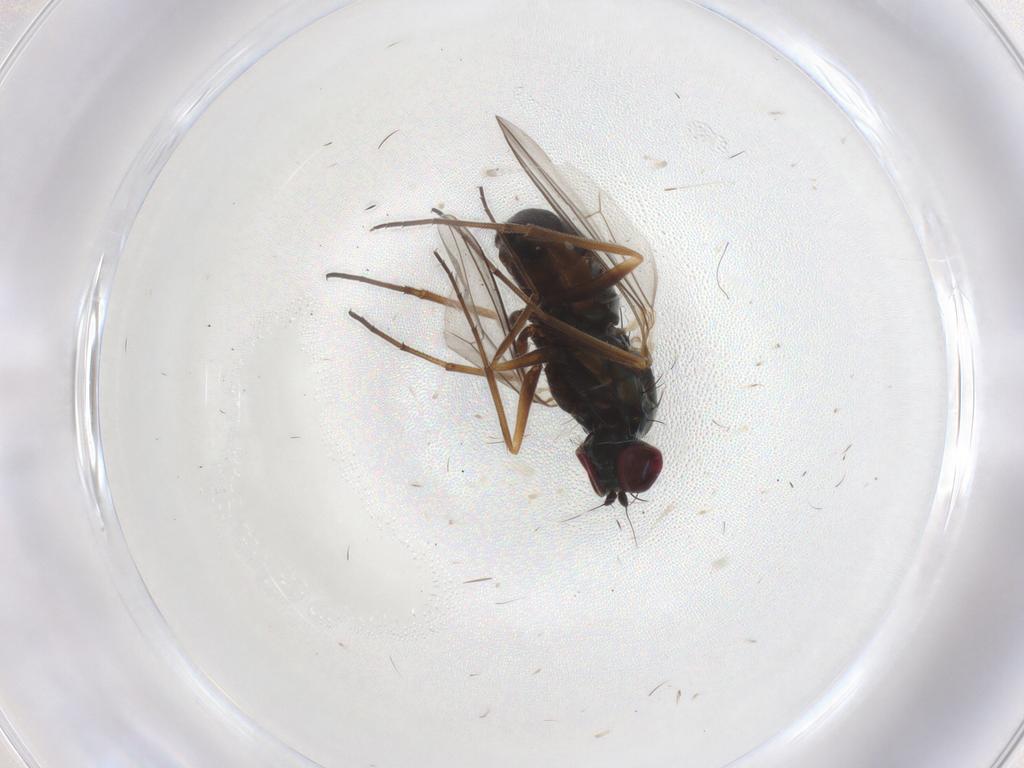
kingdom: Animalia
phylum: Arthropoda
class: Insecta
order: Diptera
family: Dolichopodidae
